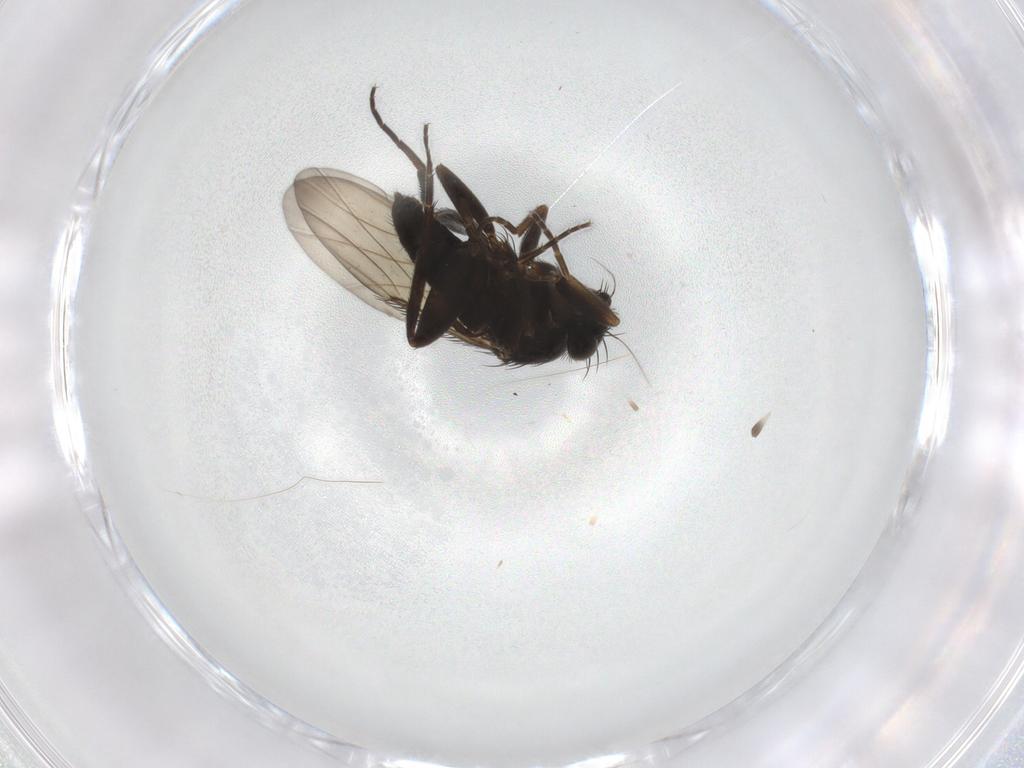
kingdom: Animalia
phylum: Arthropoda
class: Insecta
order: Diptera
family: Phoridae
